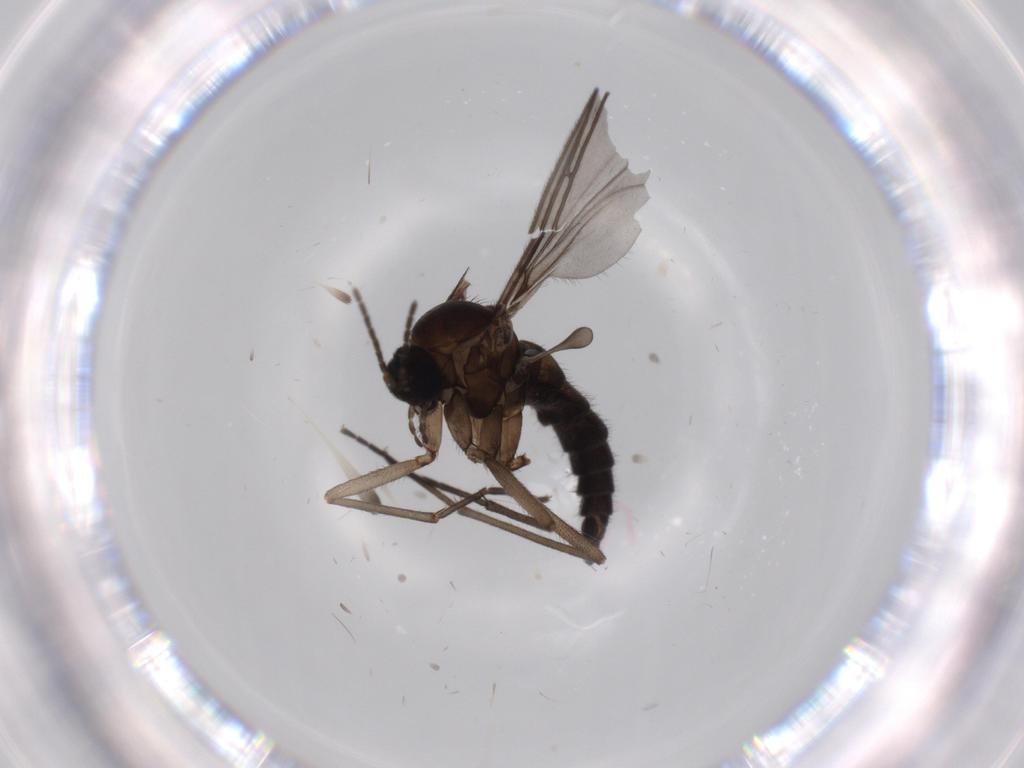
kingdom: Animalia
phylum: Arthropoda
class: Insecta
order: Diptera
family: Sciaridae
